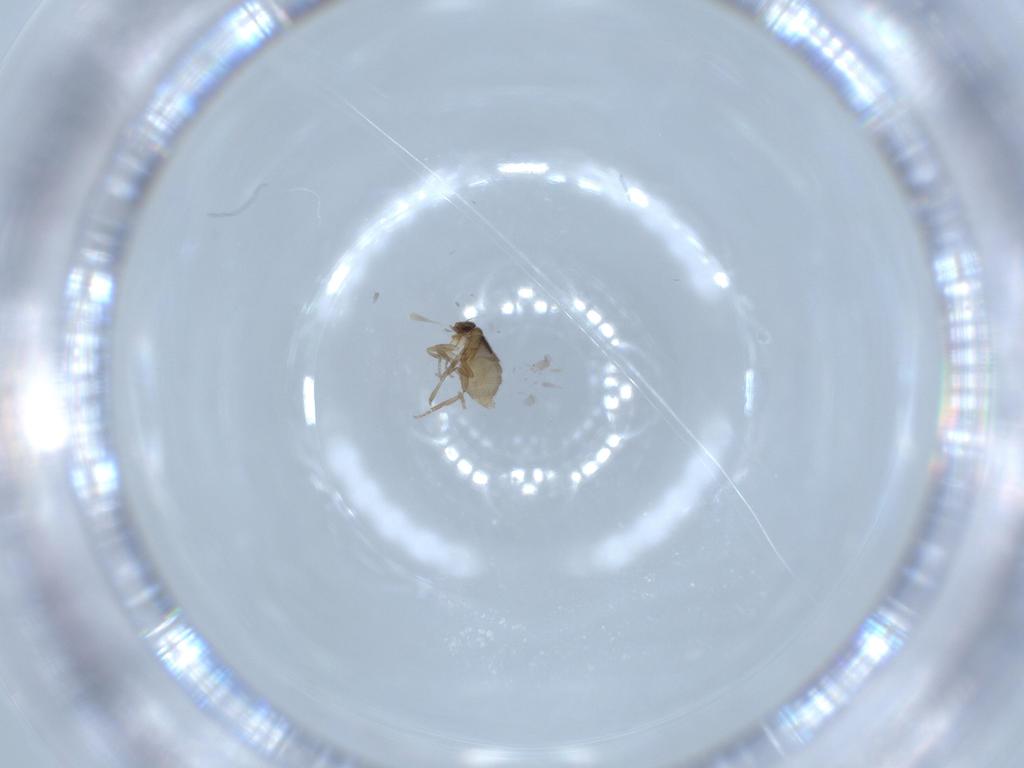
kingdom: Animalia
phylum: Arthropoda
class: Insecta
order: Diptera
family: Phoridae
